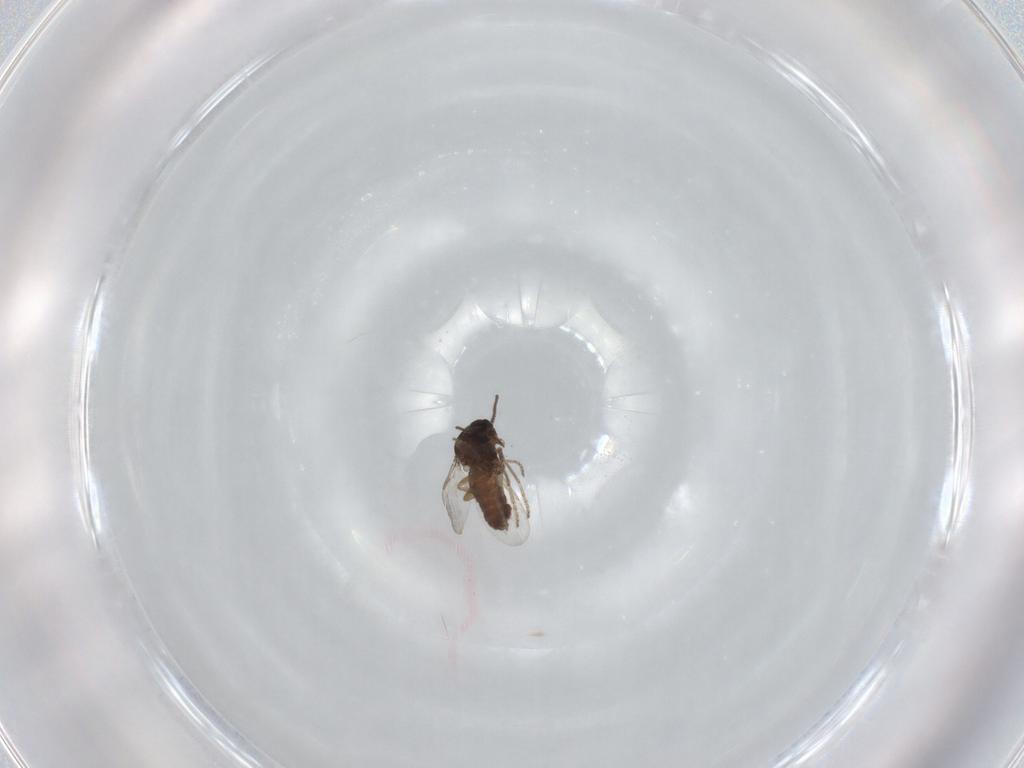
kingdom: Animalia
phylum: Arthropoda
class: Insecta
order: Diptera
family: Ceratopogonidae
